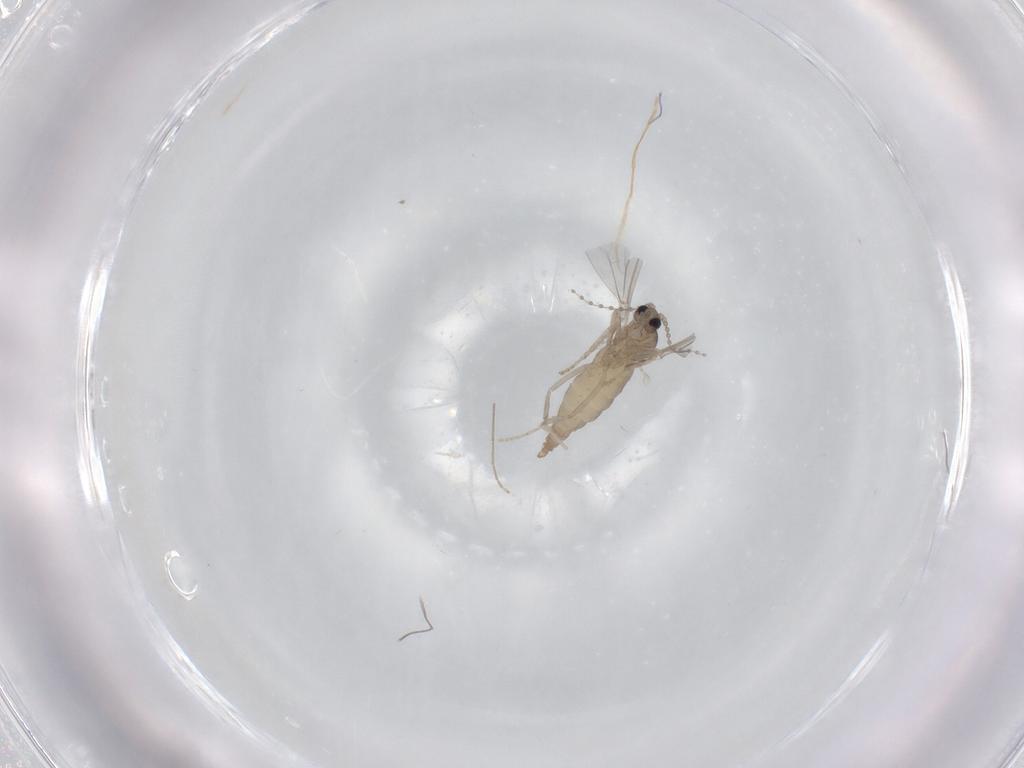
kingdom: Animalia
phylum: Arthropoda
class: Insecta
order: Diptera
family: Cecidomyiidae
